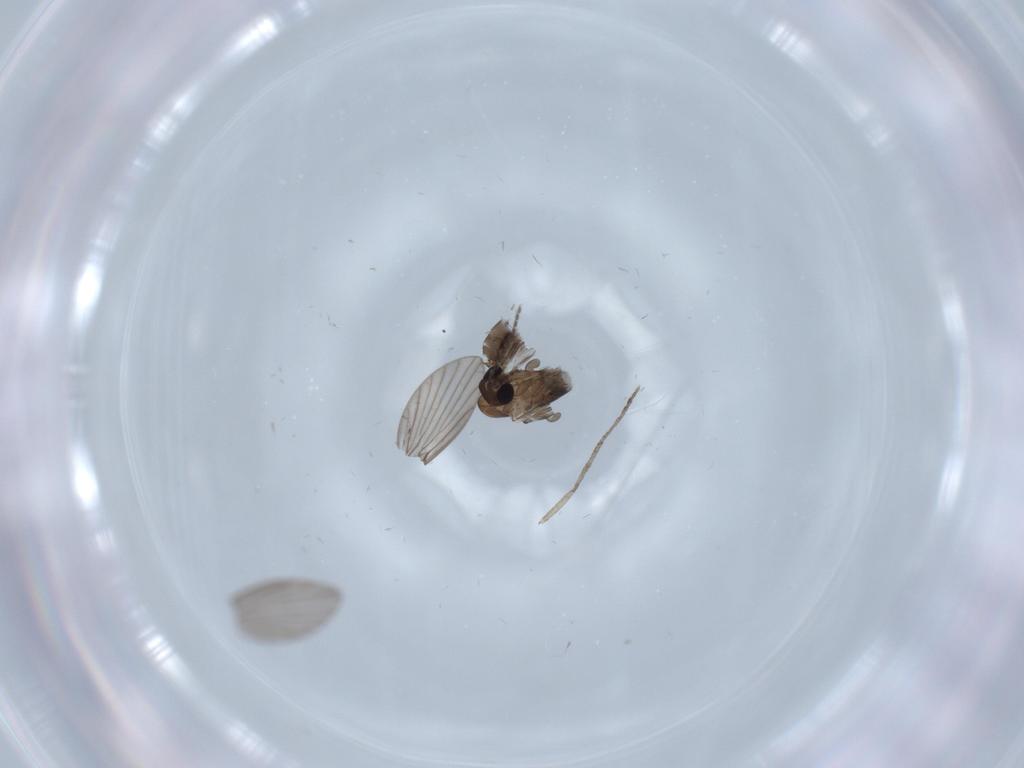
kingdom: Animalia
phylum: Arthropoda
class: Insecta
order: Diptera
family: Psychodidae
